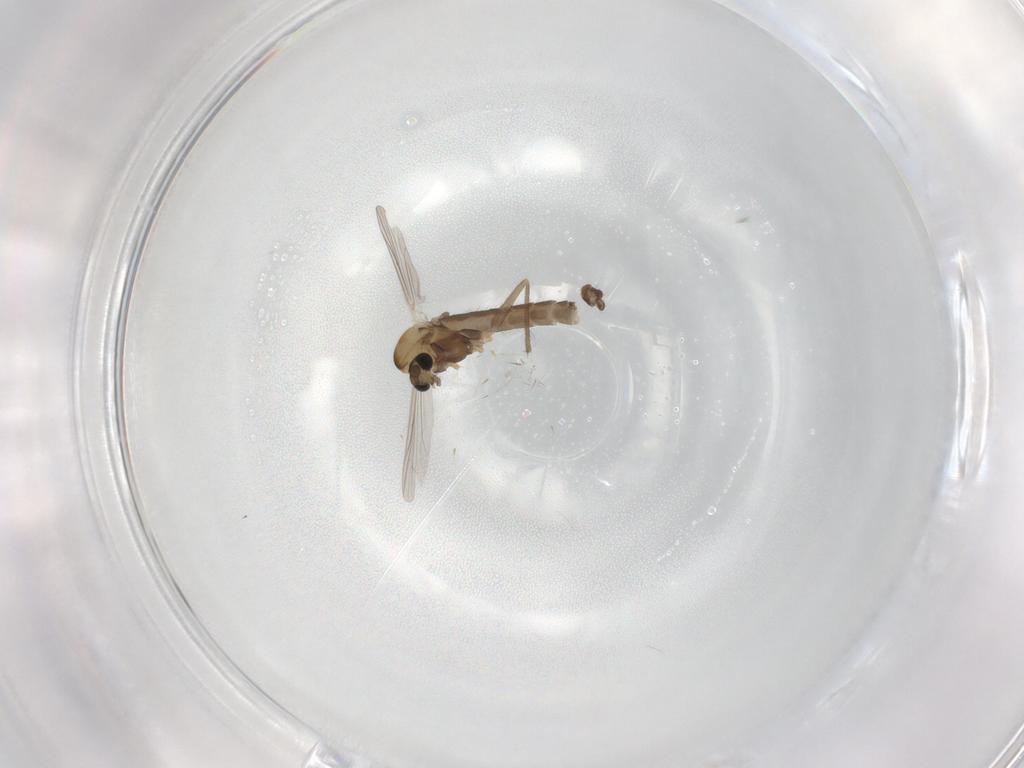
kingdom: Animalia
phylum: Arthropoda
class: Insecta
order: Diptera
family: Chironomidae
